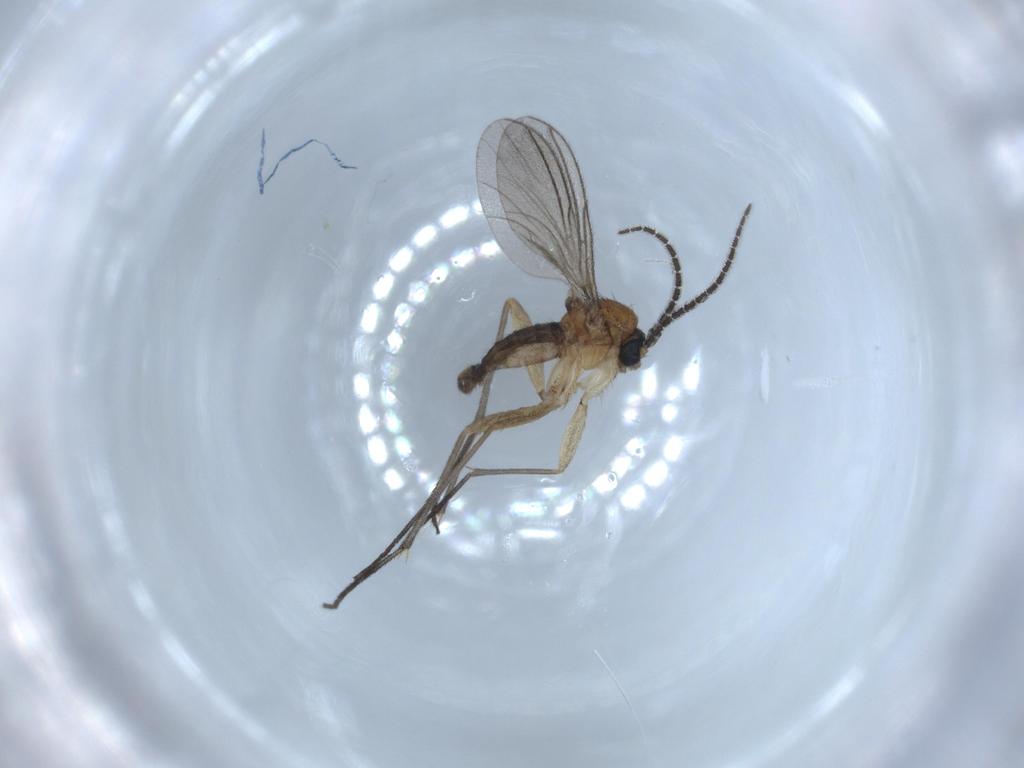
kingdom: Animalia
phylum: Arthropoda
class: Insecta
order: Diptera
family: Sciaridae
